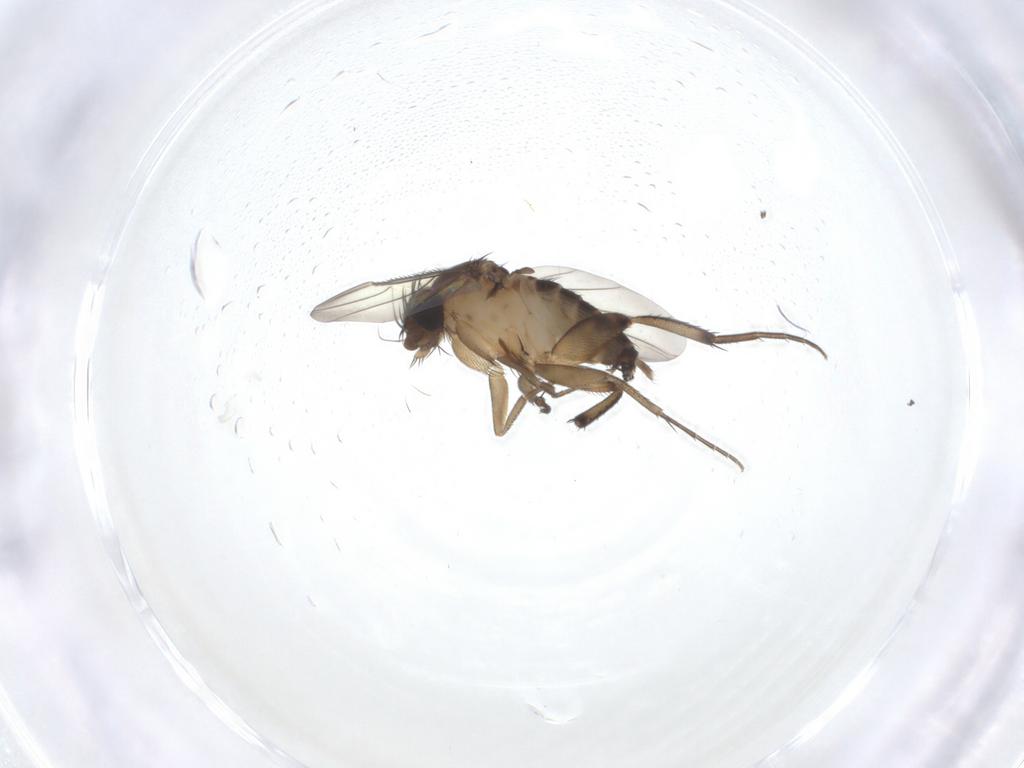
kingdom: Animalia
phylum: Arthropoda
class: Insecta
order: Diptera
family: Phoridae
